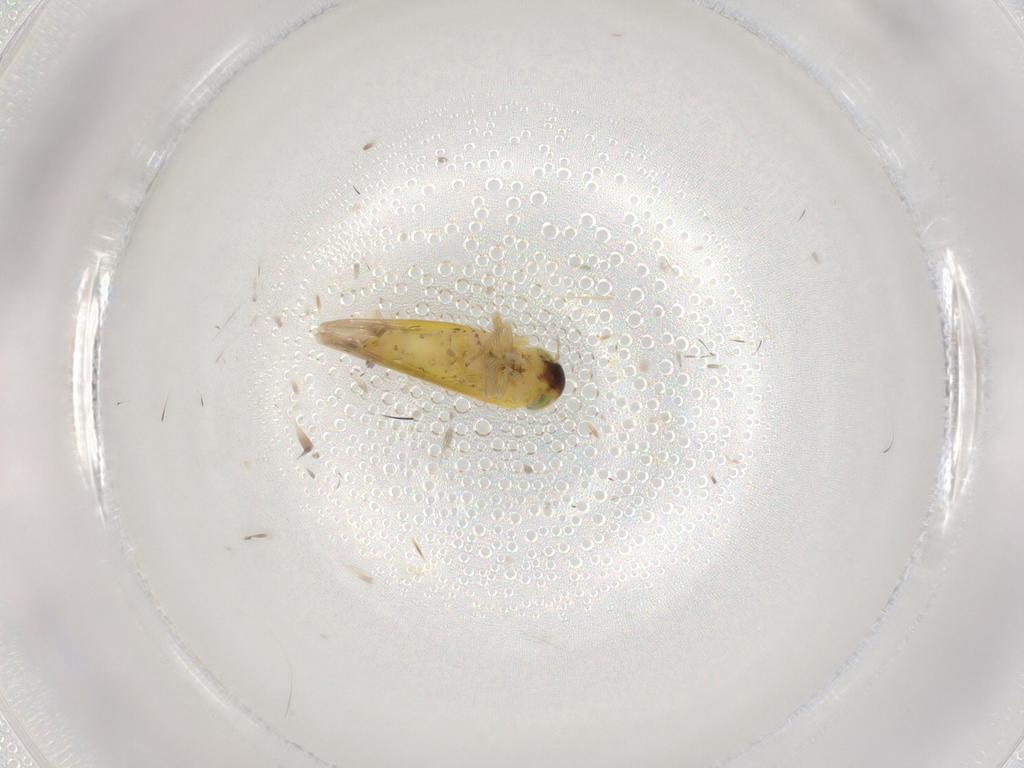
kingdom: Animalia
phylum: Arthropoda
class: Insecta
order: Hemiptera
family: Cicadellidae
